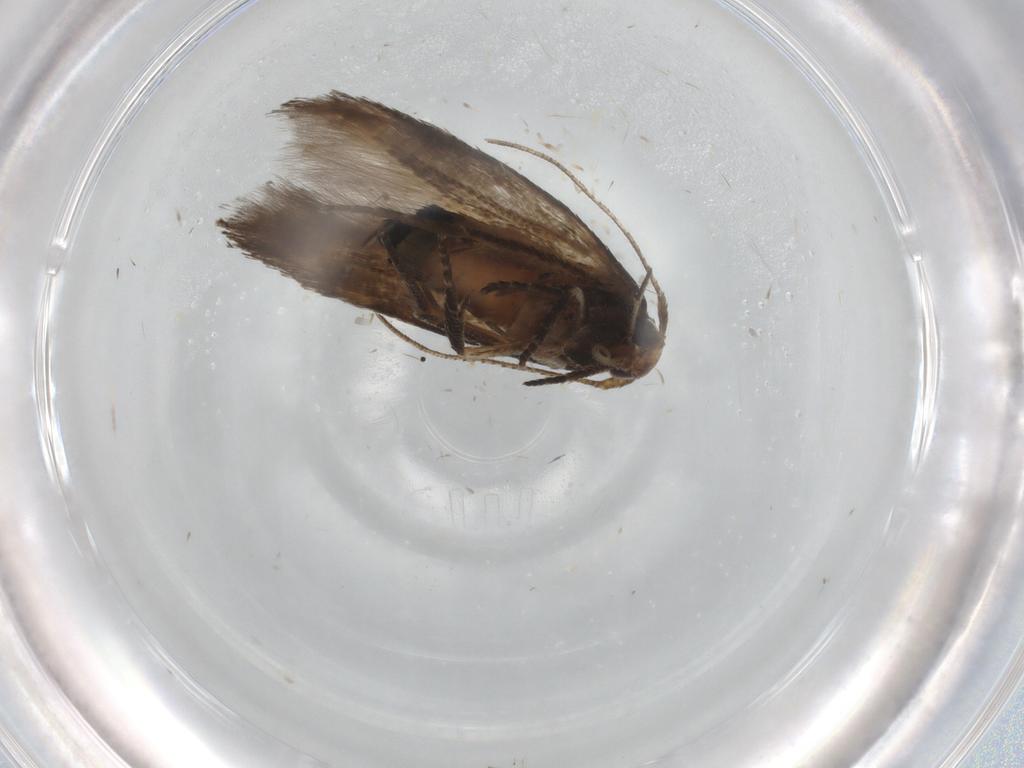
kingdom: Animalia
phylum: Arthropoda
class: Insecta
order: Lepidoptera
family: Cosmopterigidae
